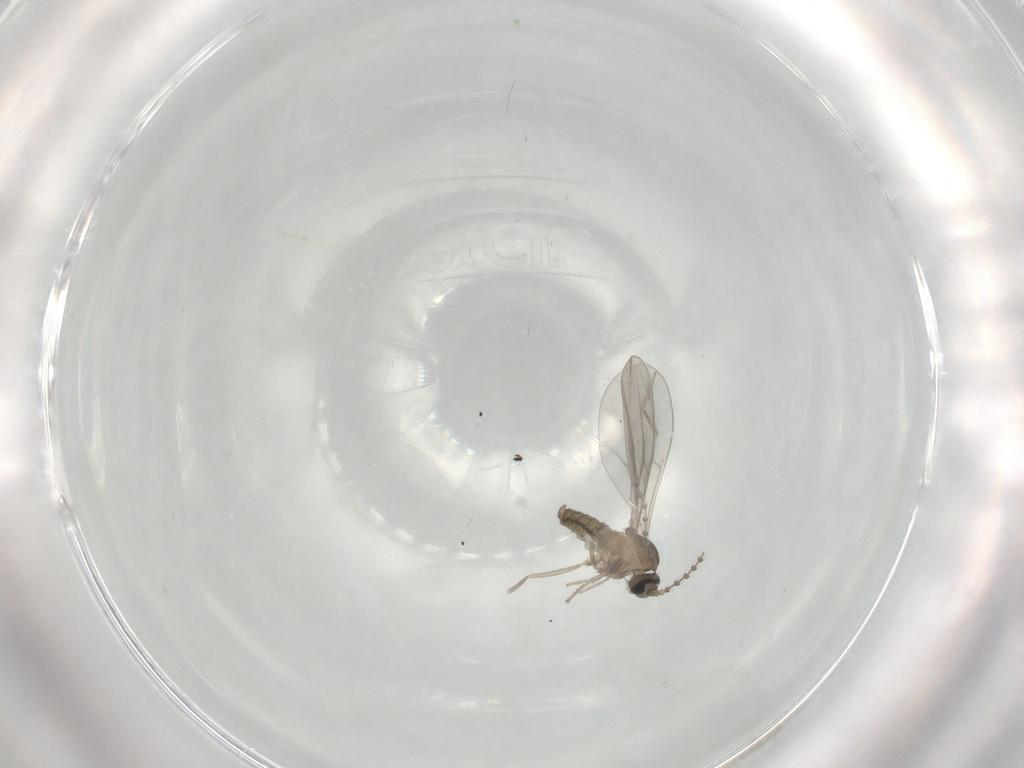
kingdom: Animalia
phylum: Arthropoda
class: Insecta
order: Diptera
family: Cecidomyiidae
